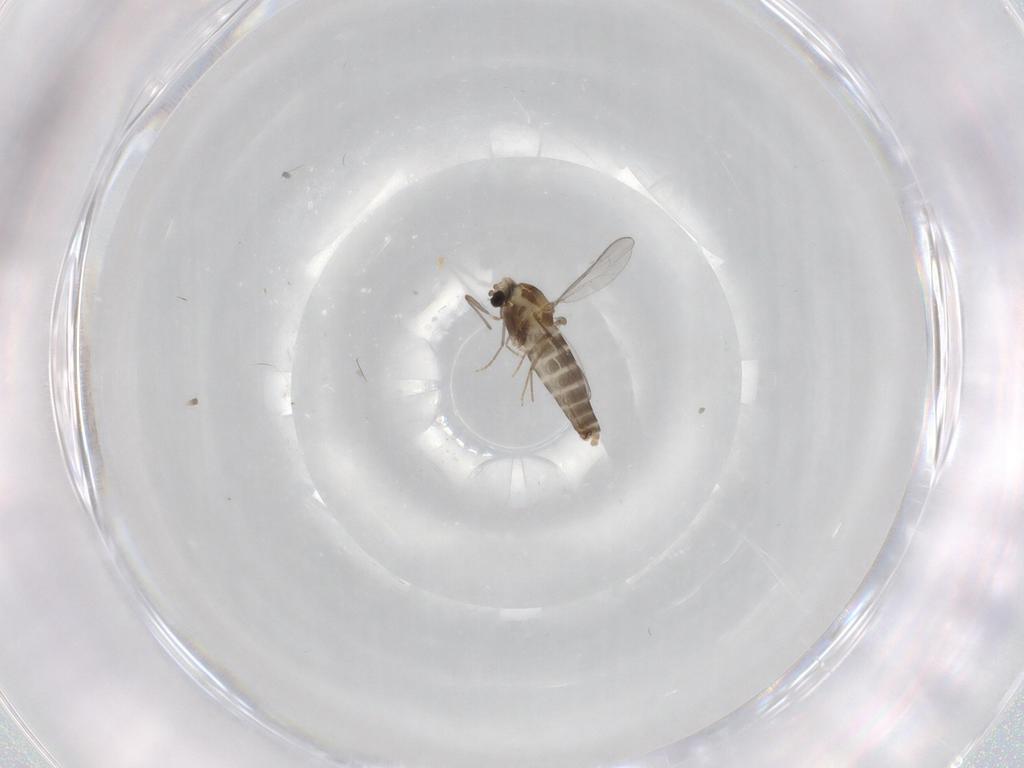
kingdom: Animalia
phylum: Arthropoda
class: Insecta
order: Diptera
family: Chironomidae
